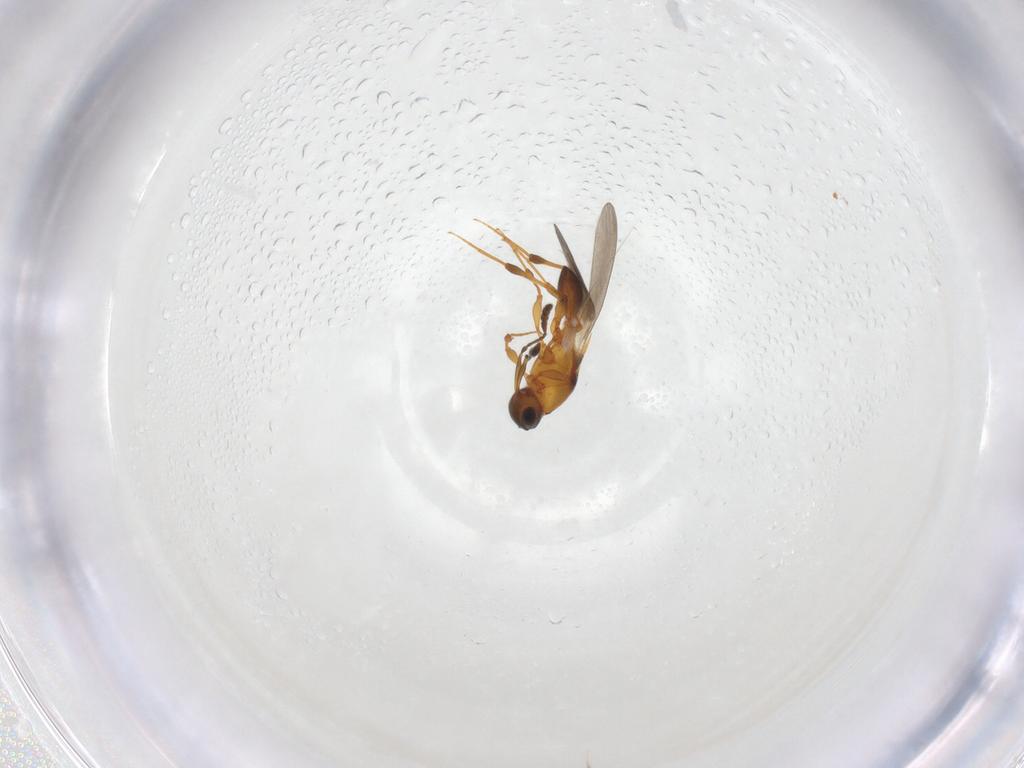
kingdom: Animalia
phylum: Arthropoda
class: Insecta
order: Hymenoptera
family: Platygastridae
